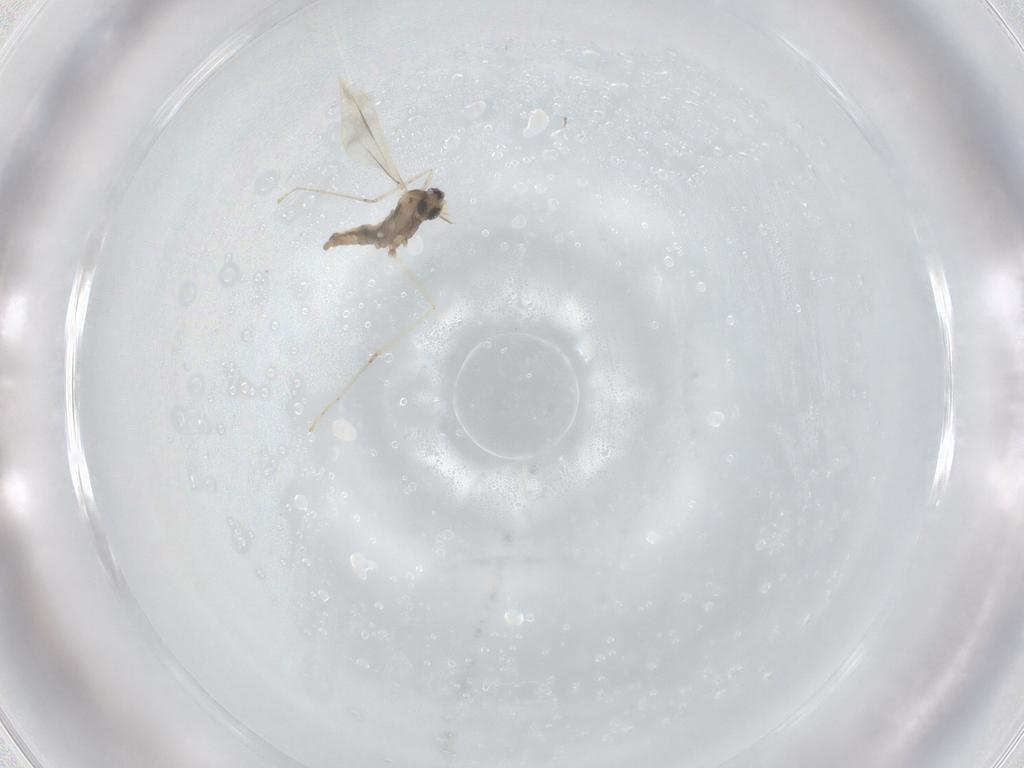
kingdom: Animalia
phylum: Arthropoda
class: Insecta
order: Diptera
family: Cecidomyiidae
